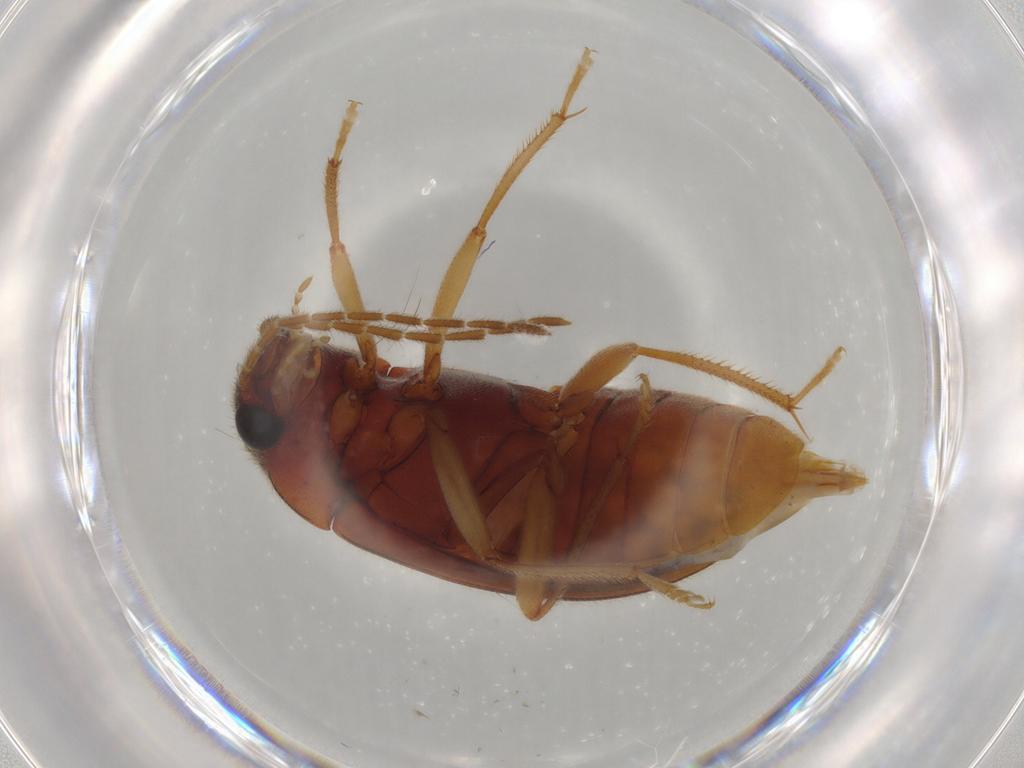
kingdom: Animalia
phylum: Arthropoda
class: Insecta
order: Coleoptera
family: Ptilodactylidae
